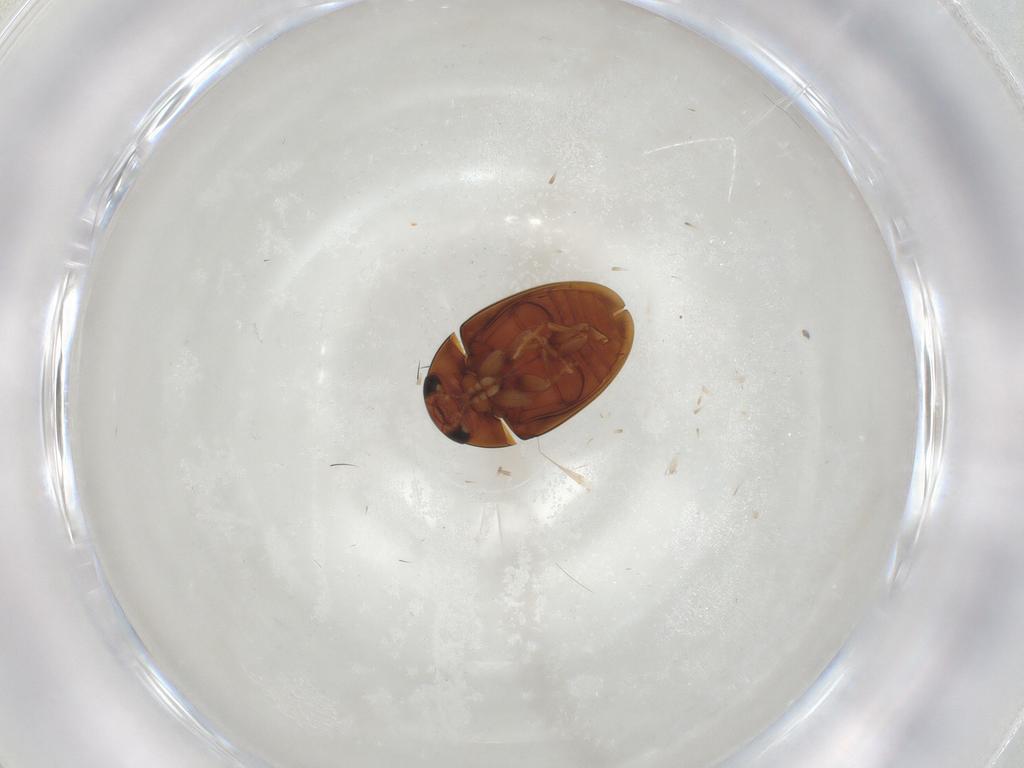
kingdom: Animalia
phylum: Arthropoda
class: Insecta
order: Coleoptera
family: Phalacridae
